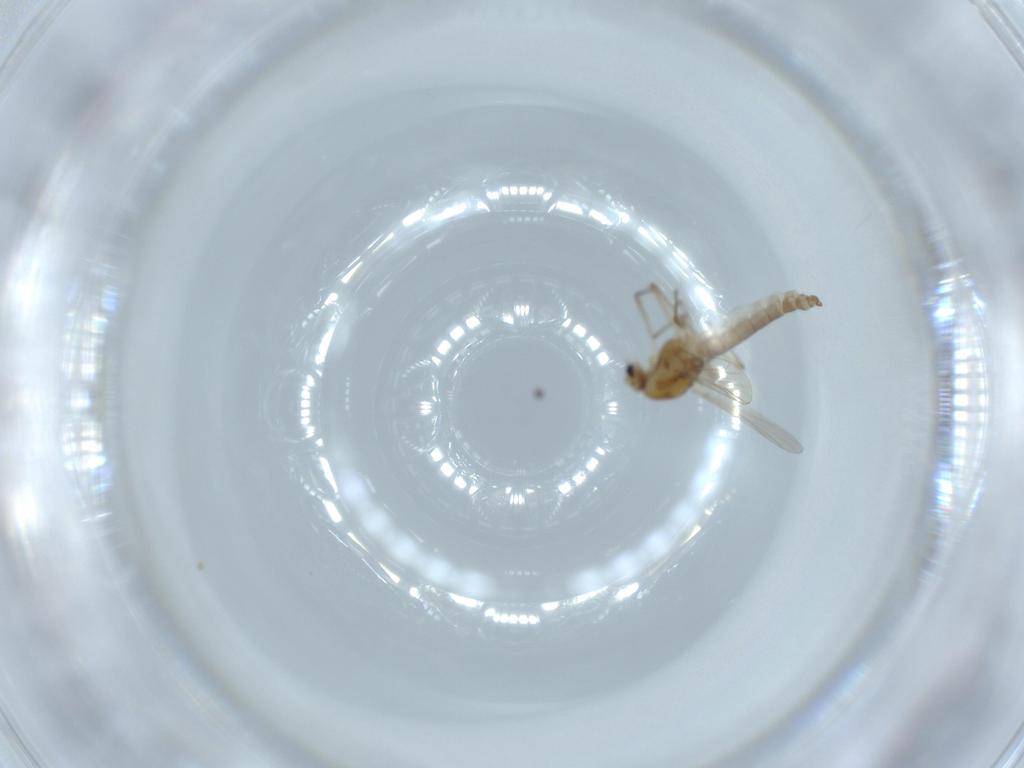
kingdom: Animalia
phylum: Arthropoda
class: Insecta
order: Diptera
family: Chironomidae
